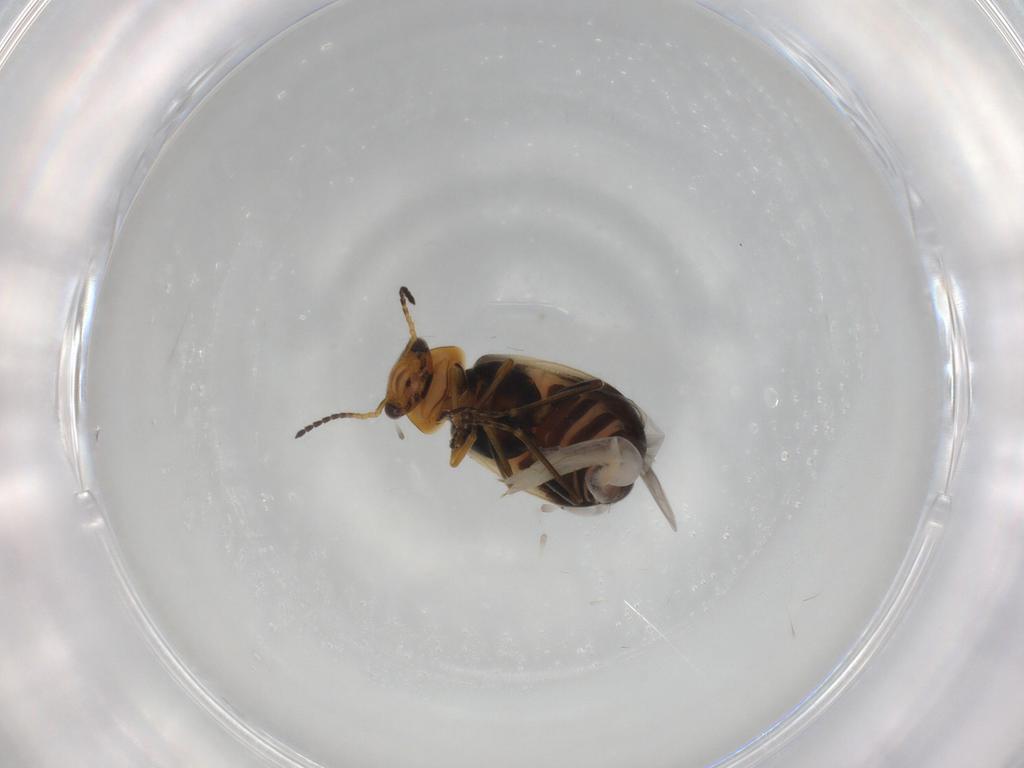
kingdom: Animalia
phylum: Arthropoda
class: Insecta
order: Coleoptera
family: Melyridae
